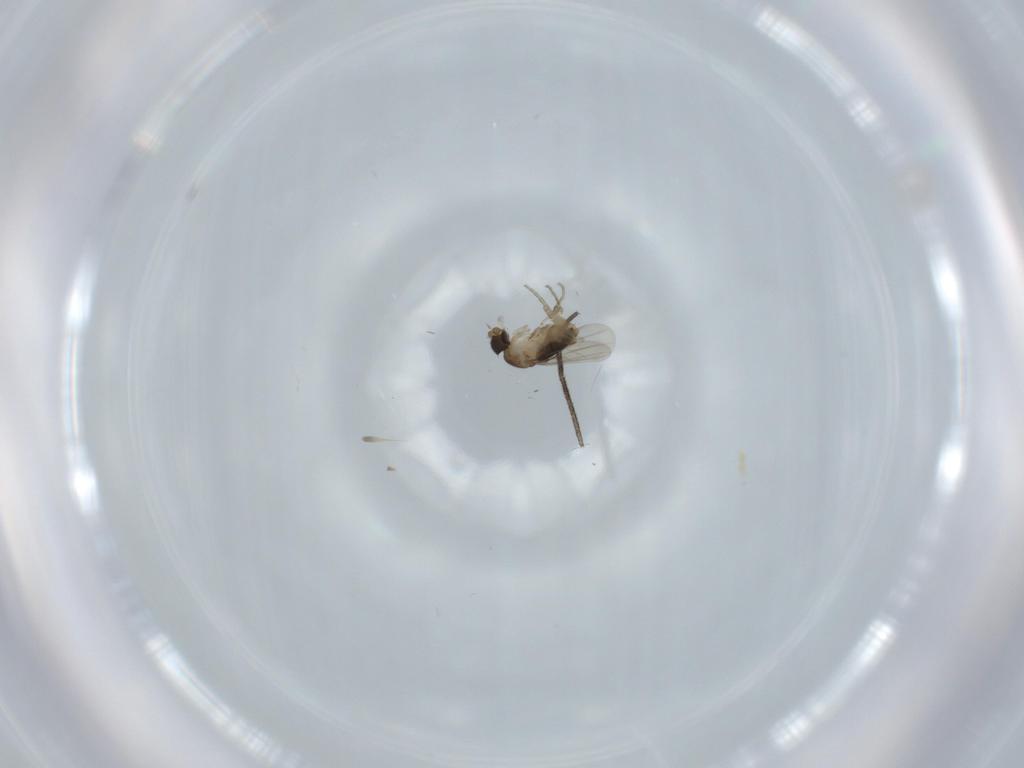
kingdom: Animalia
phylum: Arthropoda
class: Insecta
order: Diptera
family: Phoridae
